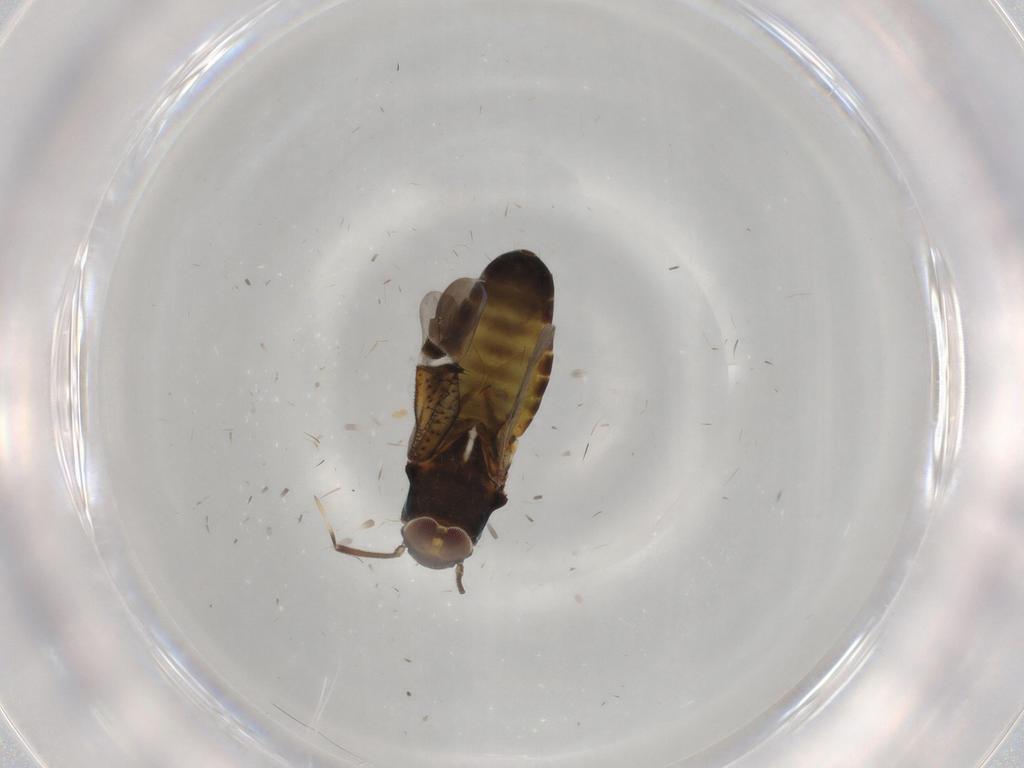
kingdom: Animalia
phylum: Arthropoda
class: Insecta
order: Hemiptera
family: Miridae
